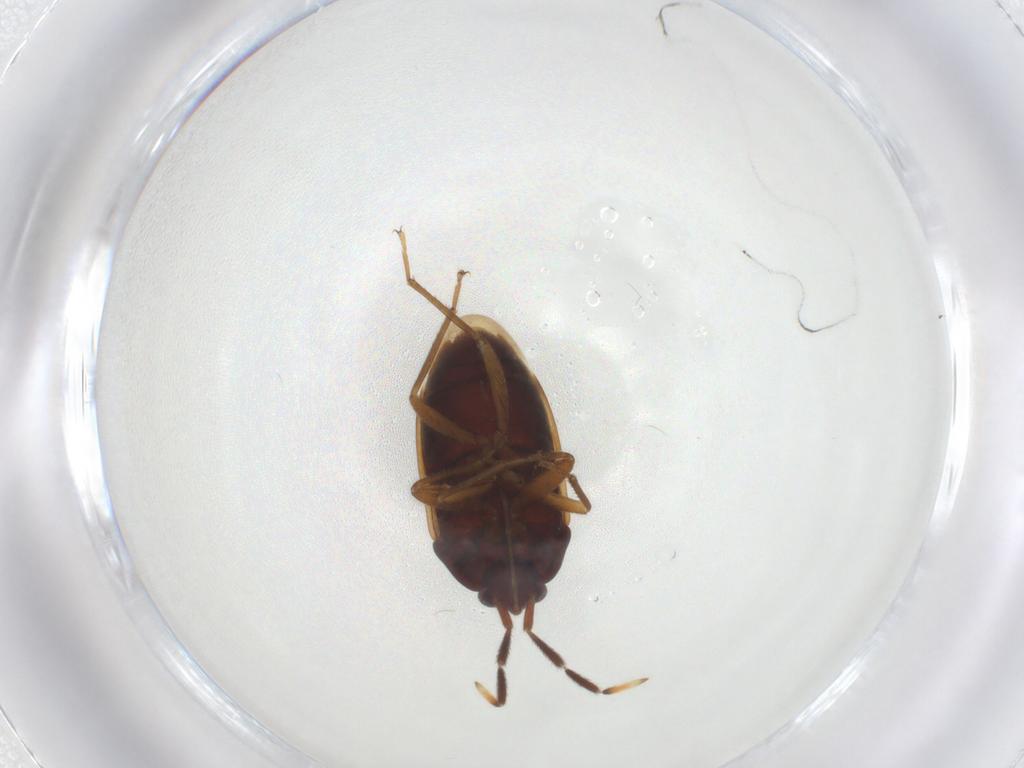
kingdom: Animalia
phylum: Arthropoda
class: Insecta
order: Hemiptera
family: Rhyparochromidae
